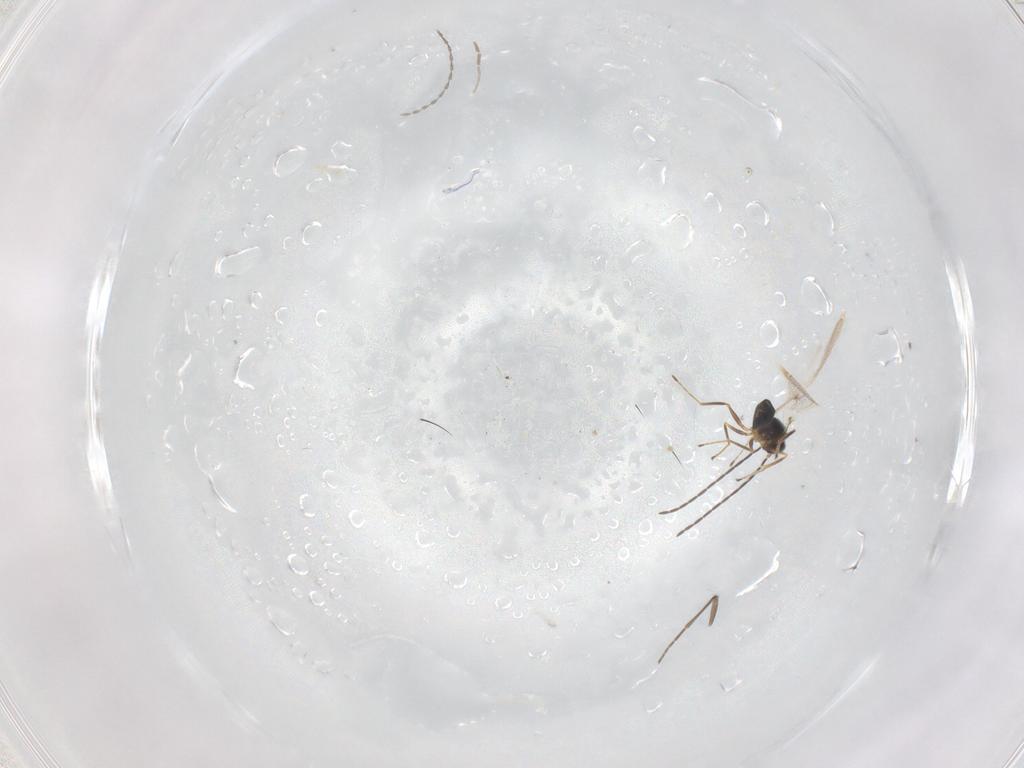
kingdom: Animalia
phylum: Arthropoda
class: Insecta
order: Hymenoptera
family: Mymaridae
